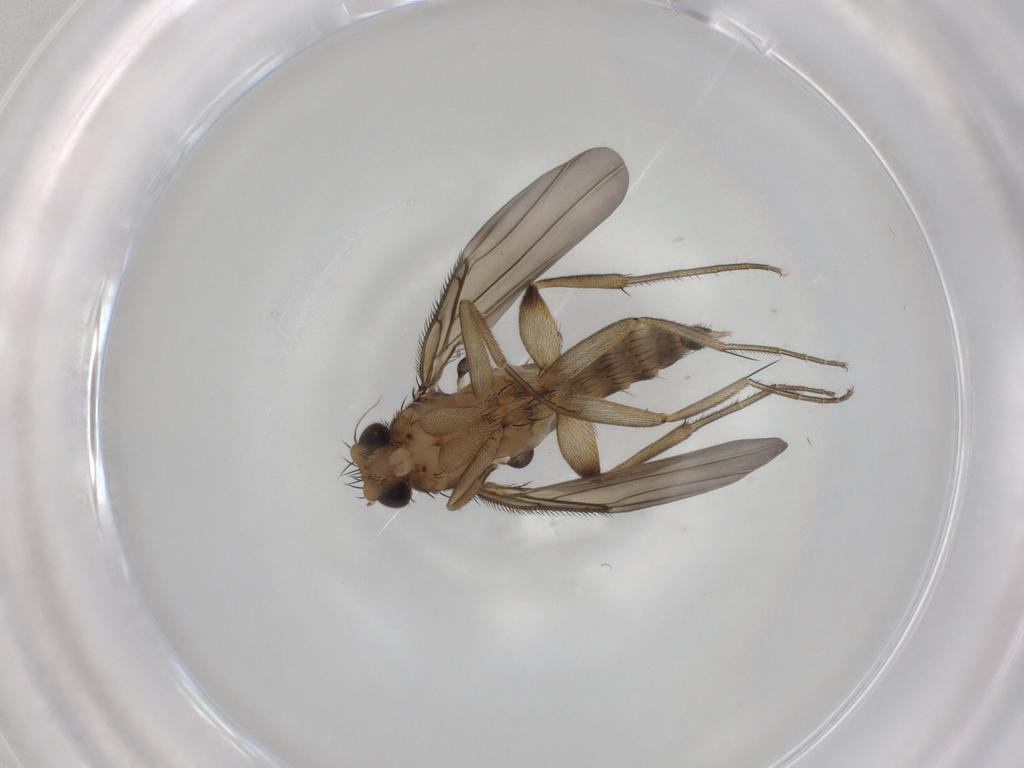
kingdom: Animalia
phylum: Arthropoda
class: Insecta
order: Diptera
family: Phoridae
